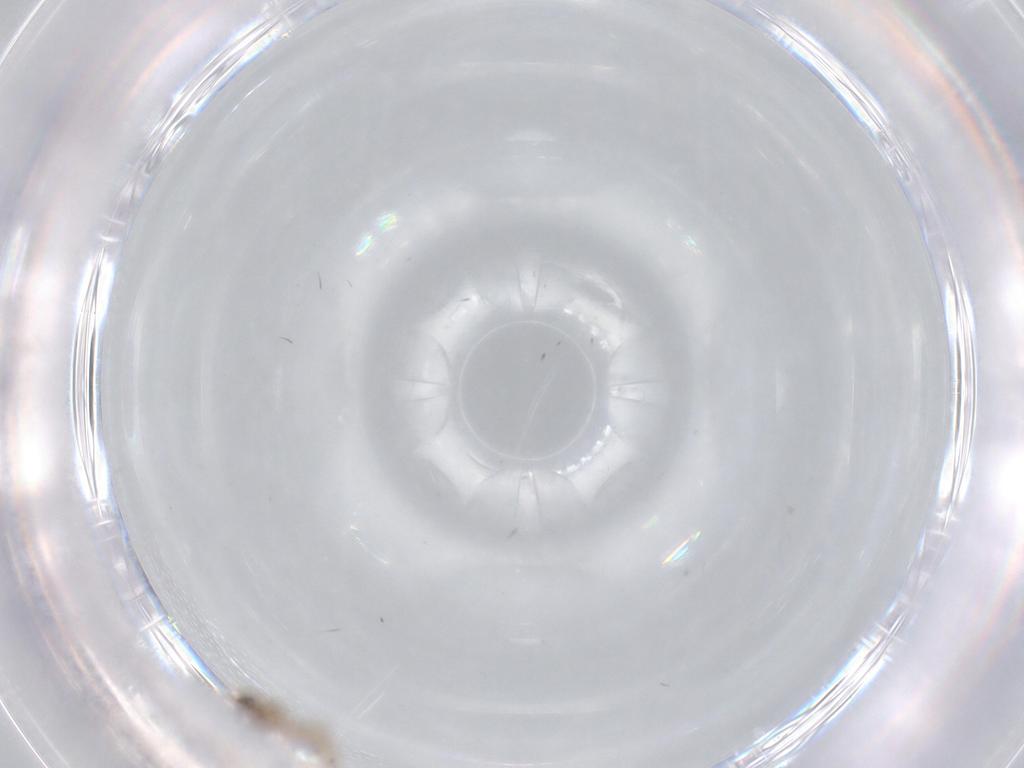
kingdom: Animalia
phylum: Arthropoda
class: Insecta
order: Diptera
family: Cecidomyiidae
